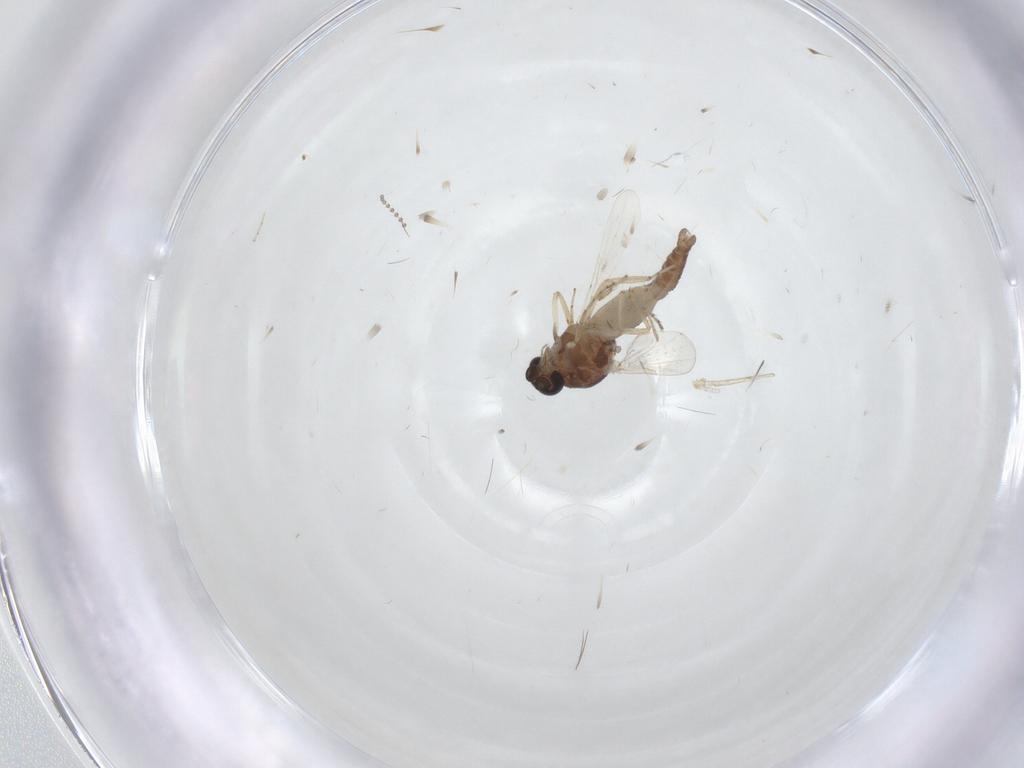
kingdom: Animalia
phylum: Arthropoda
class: Insecta
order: Diptera
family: Ceratopogonidae
